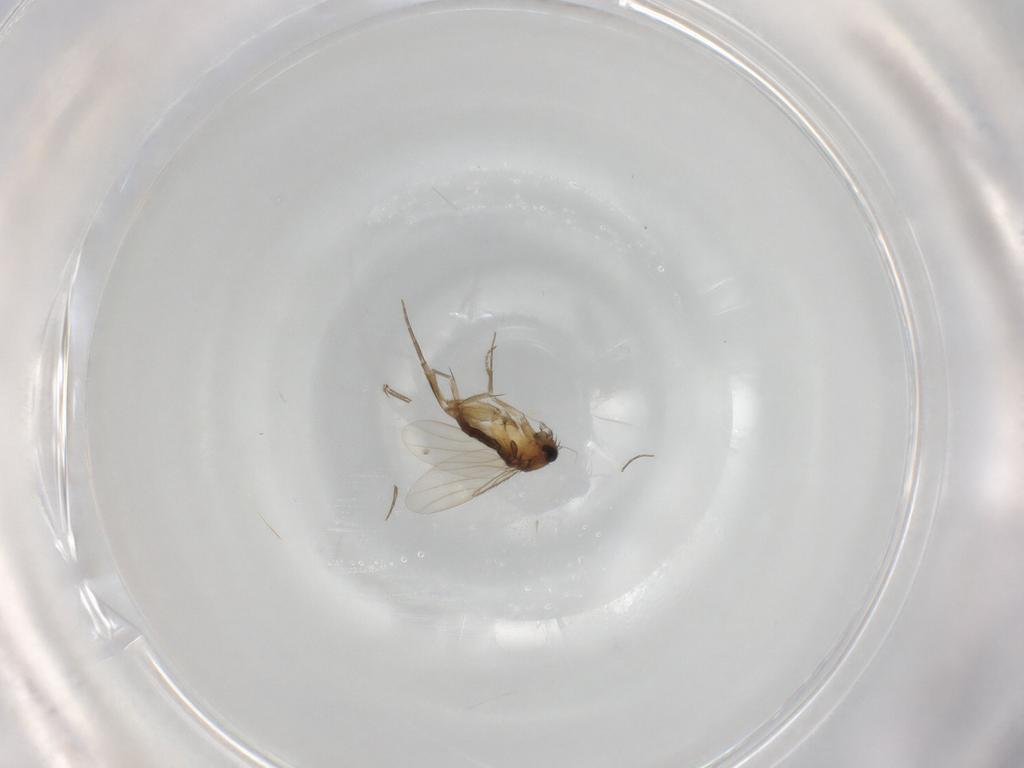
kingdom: Animalia
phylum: Arthropoda
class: Insecta
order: Diptera
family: Phoridae
